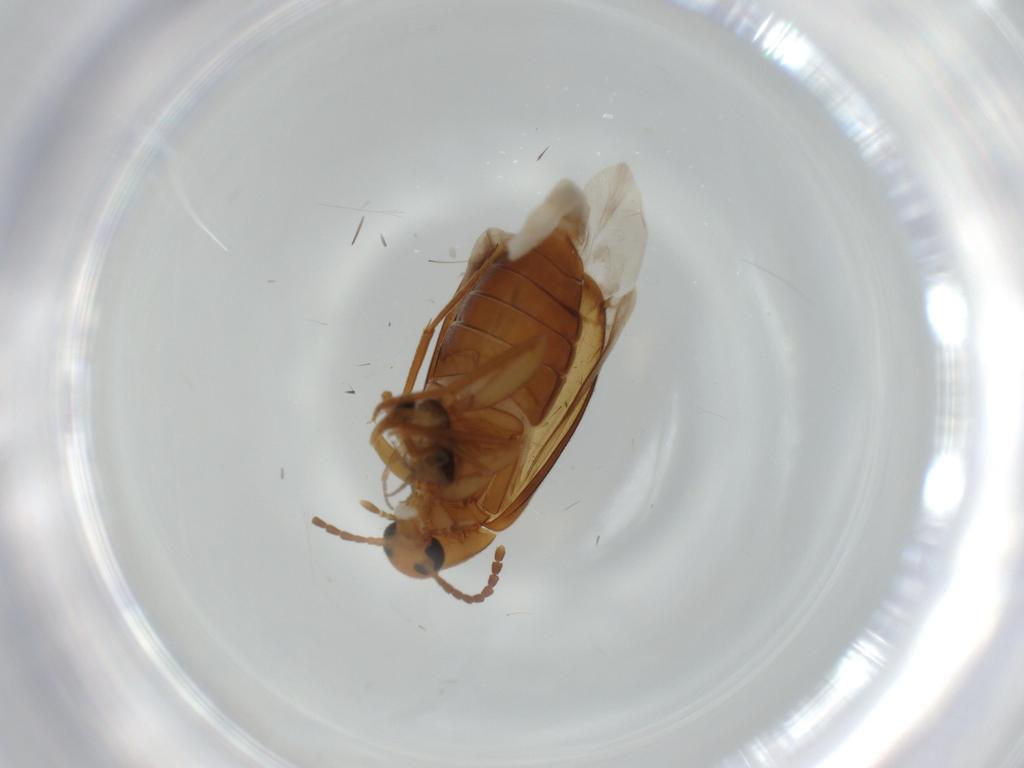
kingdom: Animalia
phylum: Arthropoda
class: Insecta
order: Coleoptera
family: Scraptiidae
